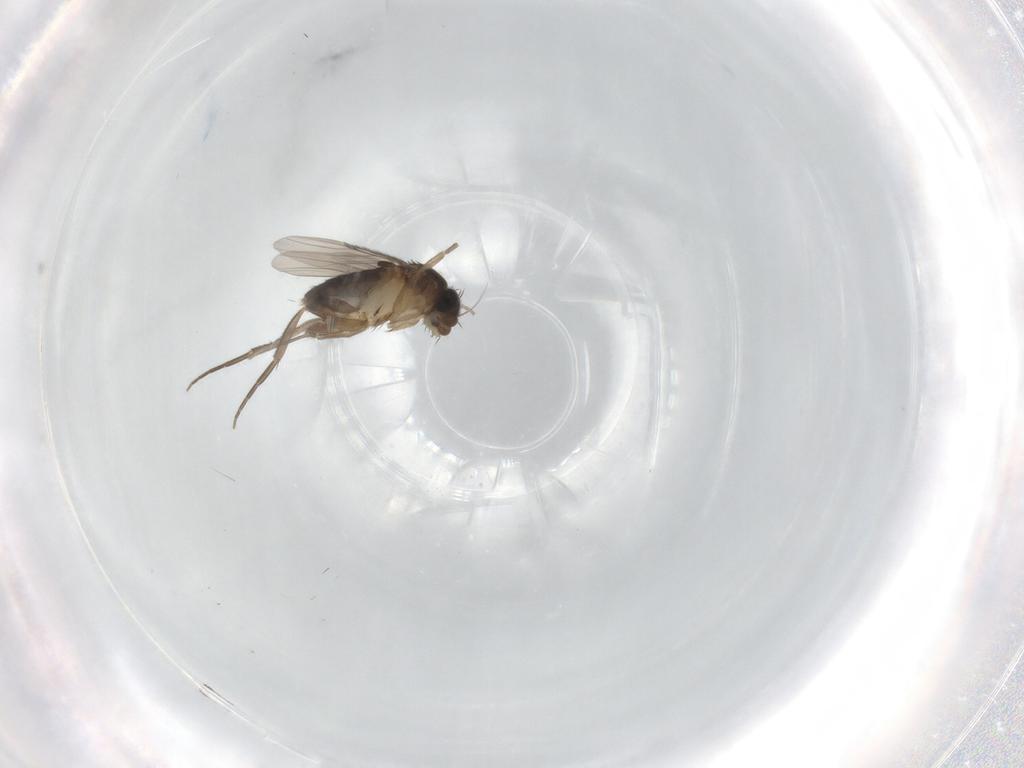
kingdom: Animalia
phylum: Arthropoda
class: Insecta
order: Diptera
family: Phoridae
